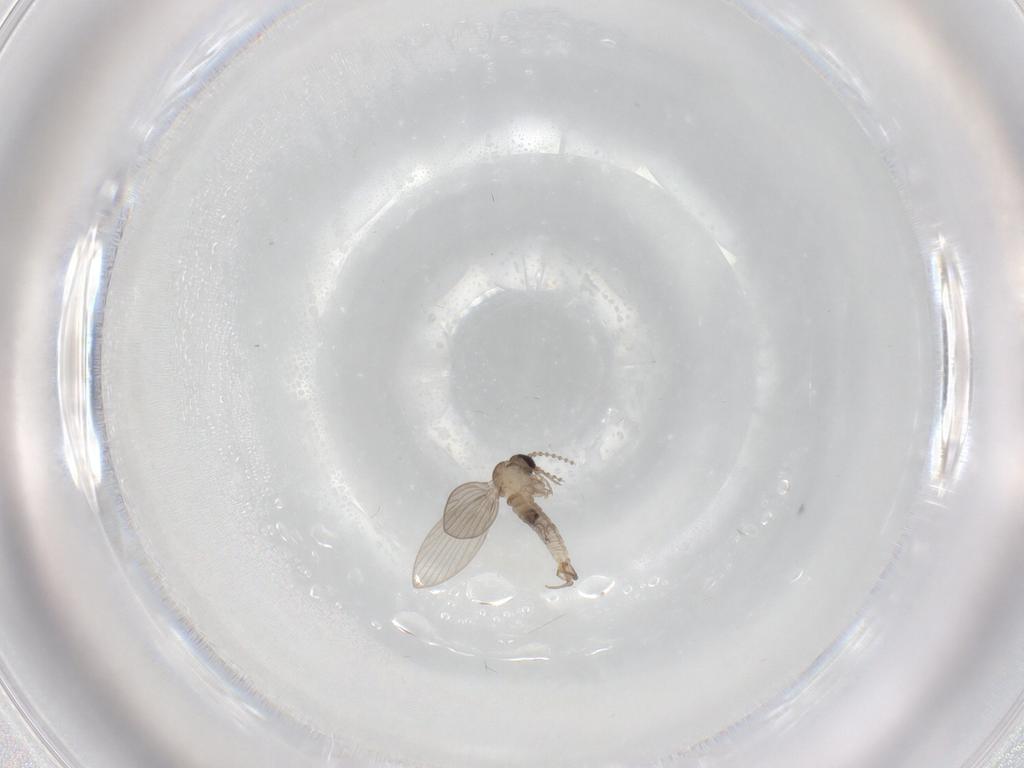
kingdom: Animalia
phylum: Arthropoda
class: Insecta
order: Diptera
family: Psychodidae
